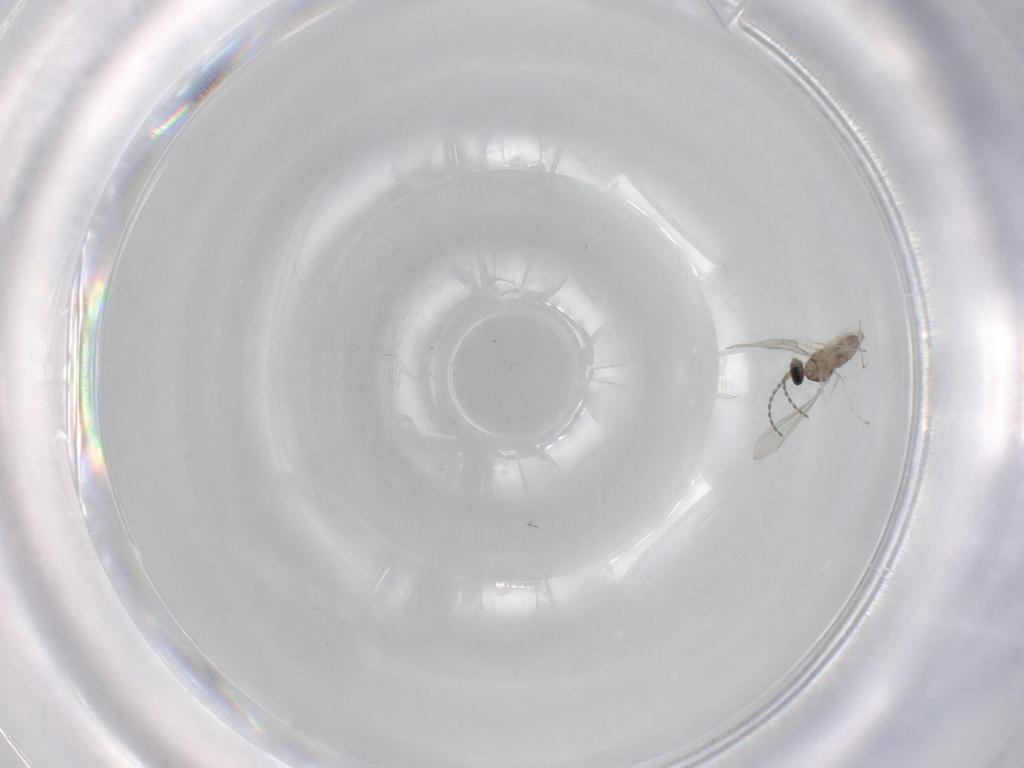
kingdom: Animalia
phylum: Arthropoda
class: Insecta
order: Diptera
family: Cecidomyiidae
